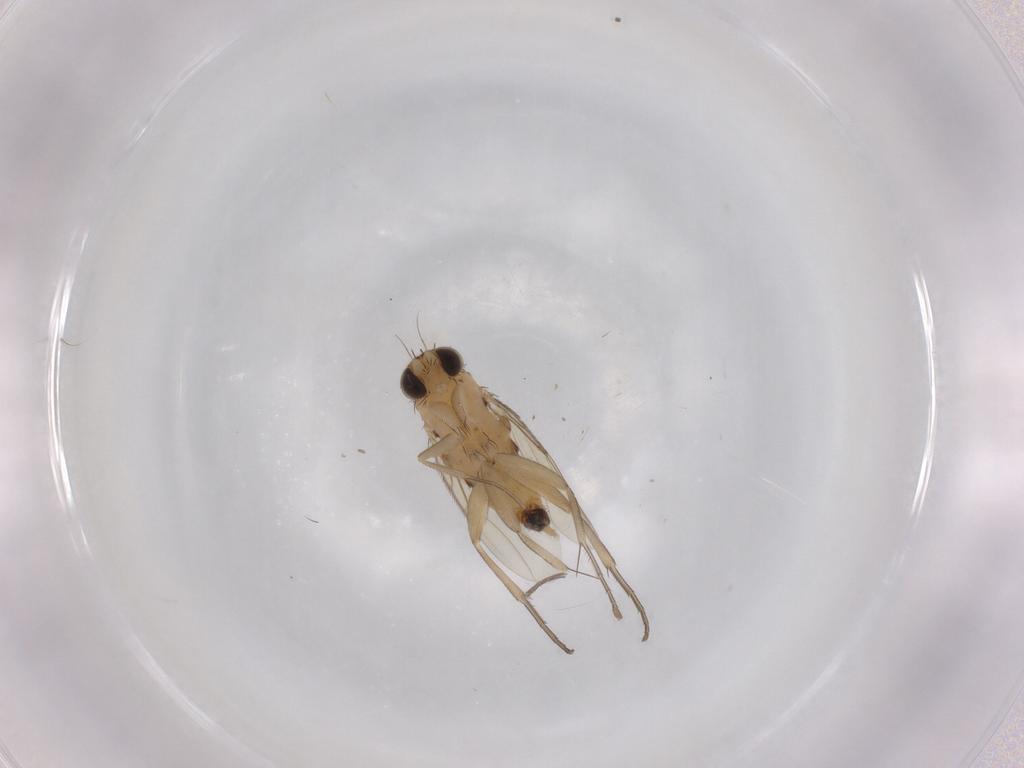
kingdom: Animalia
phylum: Arthropoda
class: Insecta
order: Diptera
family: Phoridae
